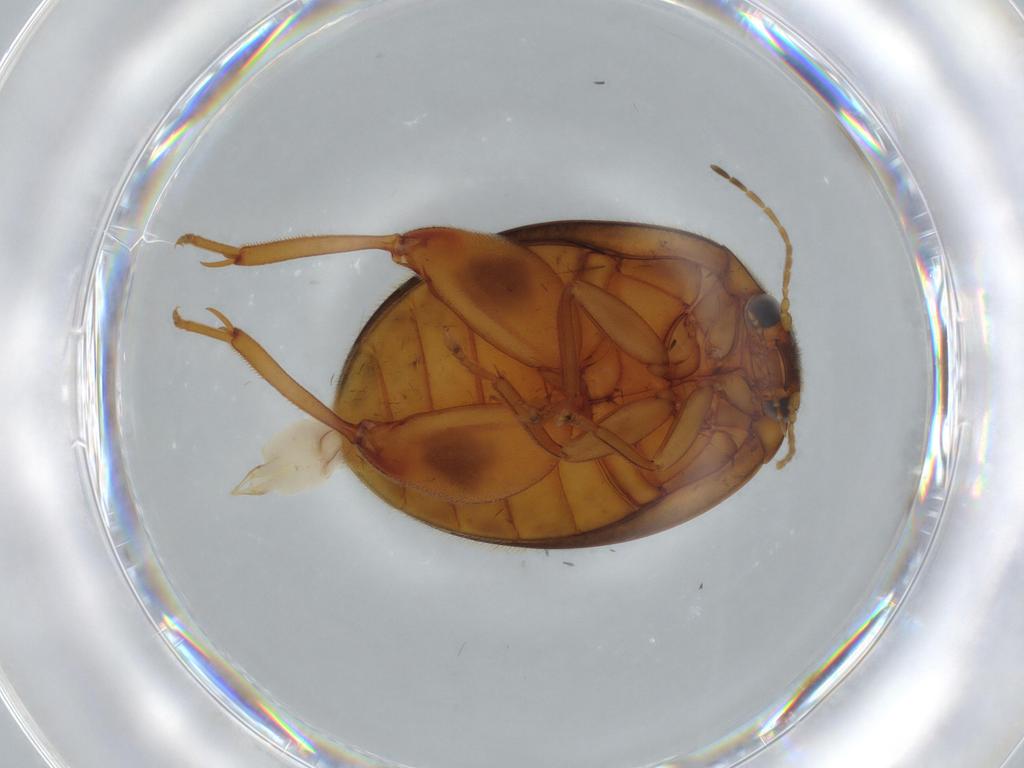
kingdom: Animalia
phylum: Arthropoda
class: Insecta
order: Coleoptera
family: Scirtidae
